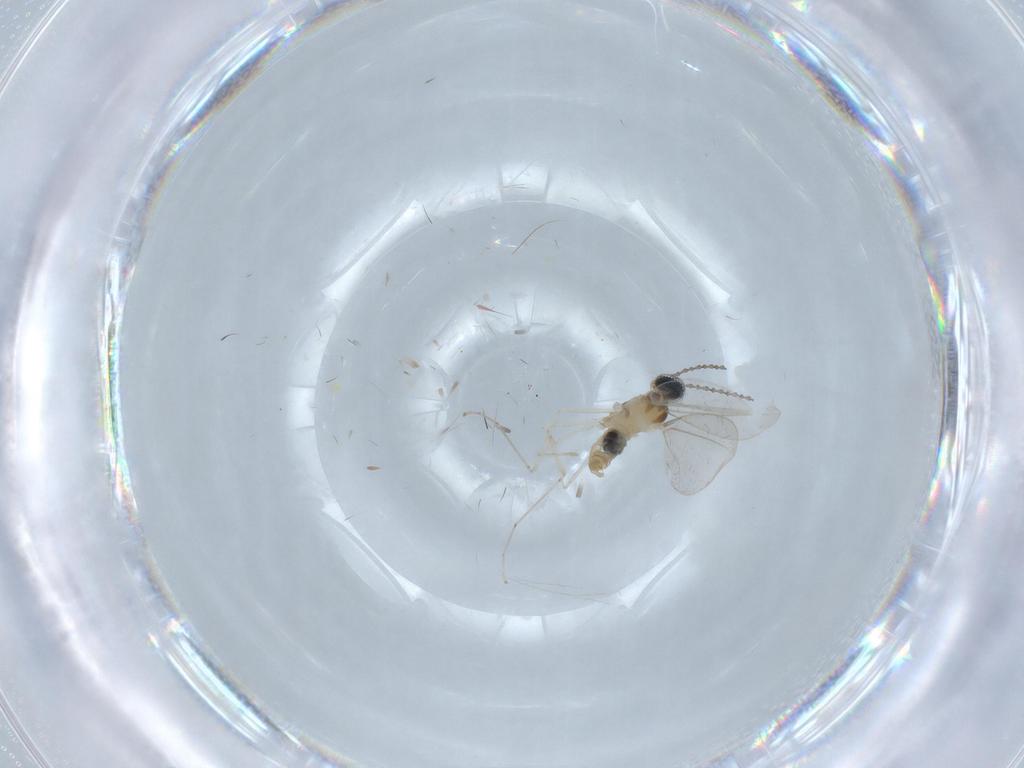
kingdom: Animalia
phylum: Arthropoda
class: Insecta
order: Diptera
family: Cecidomyiidae
